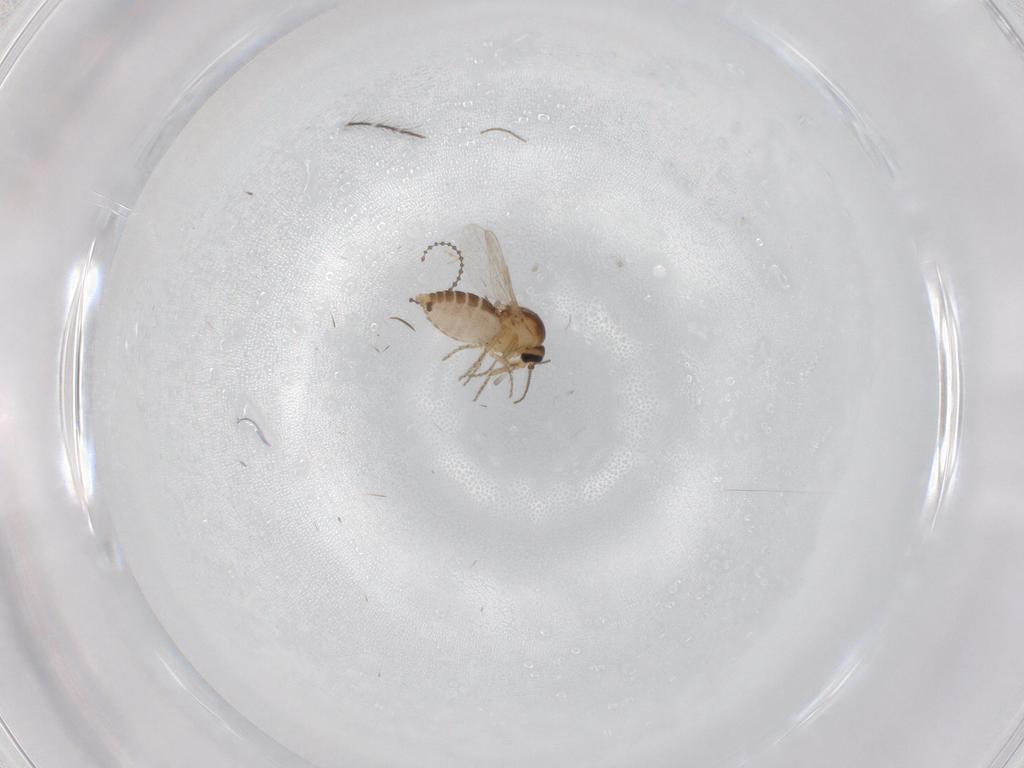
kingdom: Animalia
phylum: Arthropoda
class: Insecta
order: Diptera
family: Ceratopogonidae
